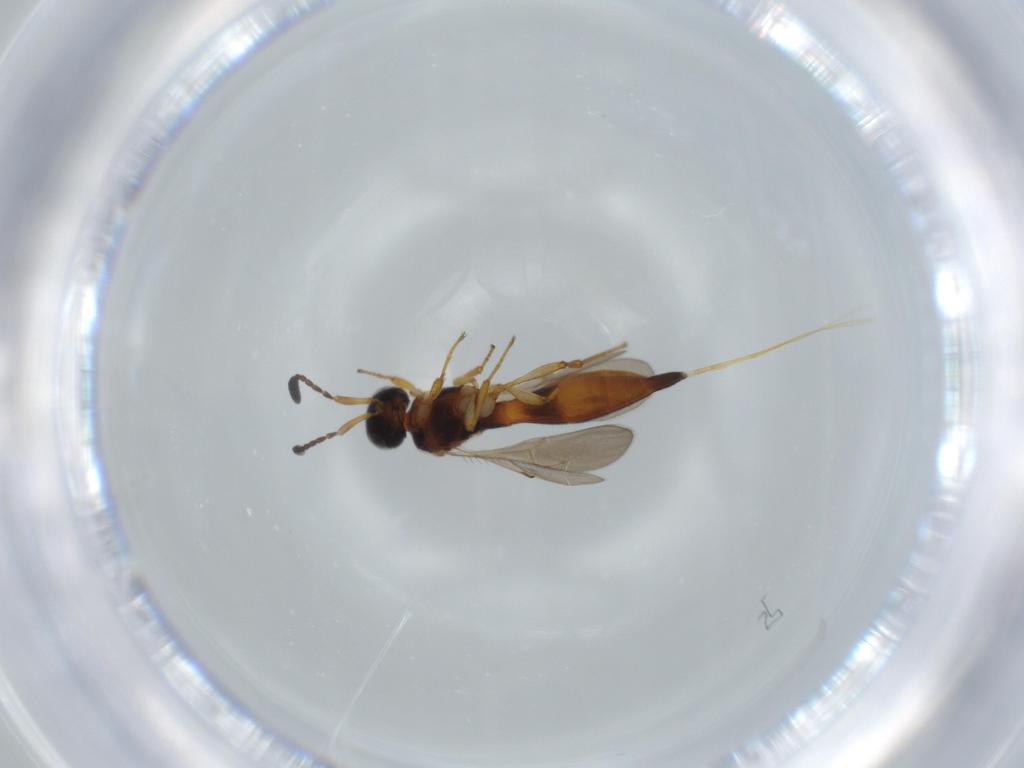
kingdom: Animalia
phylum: Arthropoda
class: Insecta
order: Hymenoptera
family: Scelionidae
